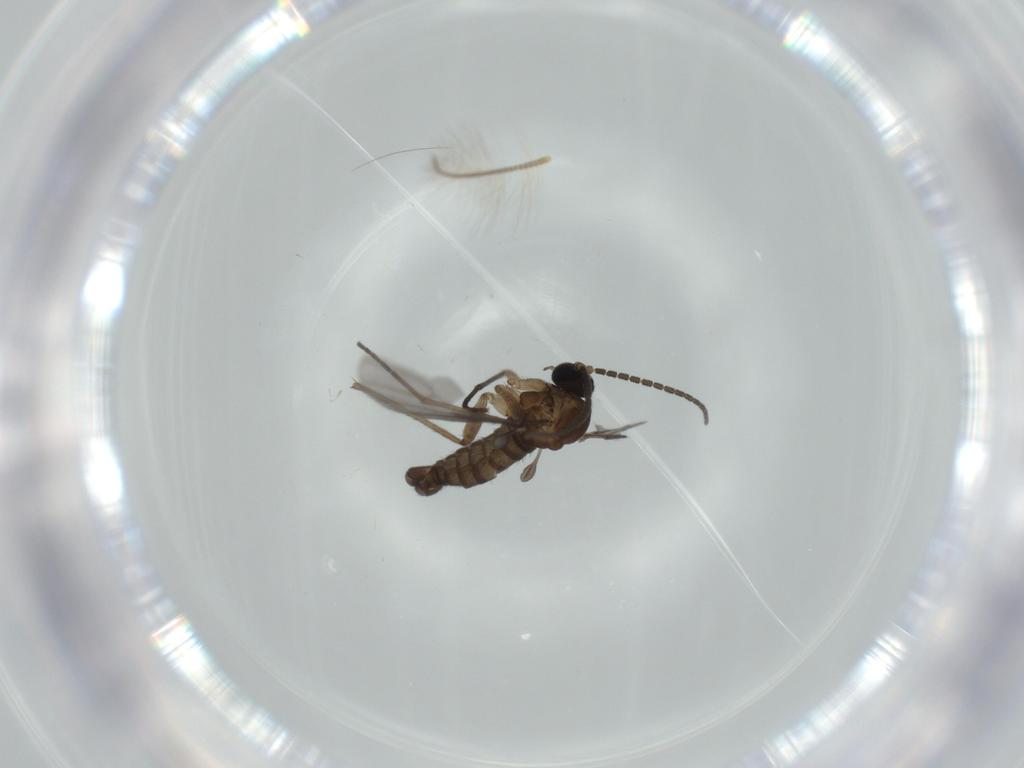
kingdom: Animalia
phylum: Arthropoda
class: Insecta
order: Diptera
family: Sciaridae
